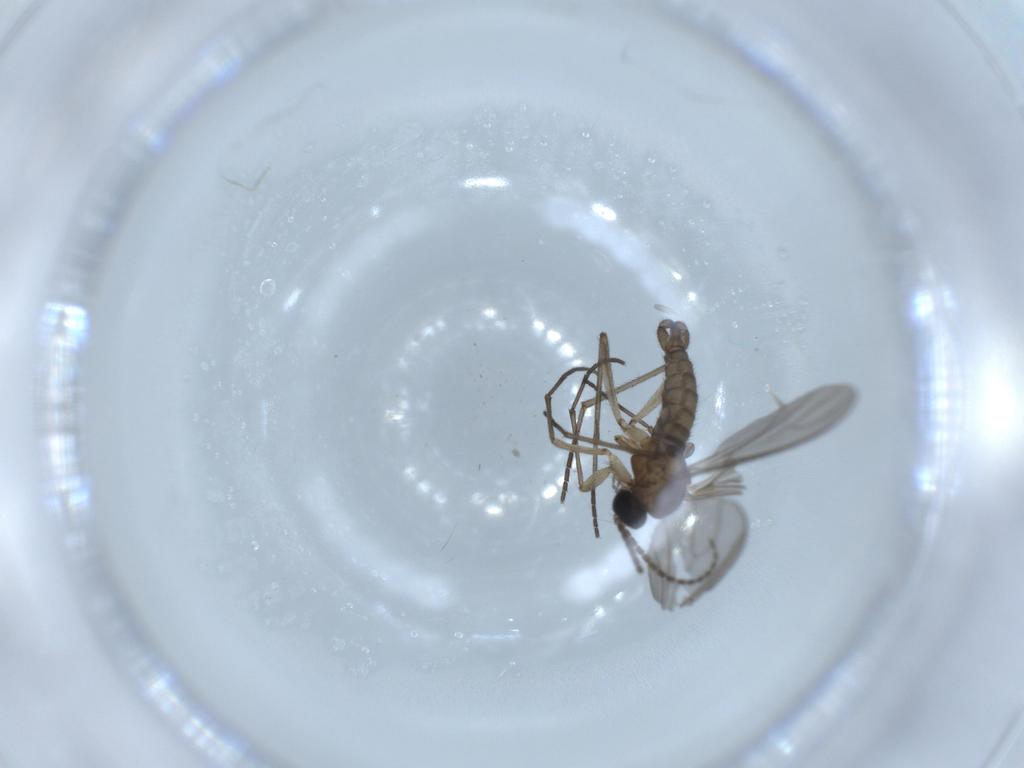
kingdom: Animalia
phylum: Arthropoda
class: Insecta
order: Diptera
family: Sciaridae
